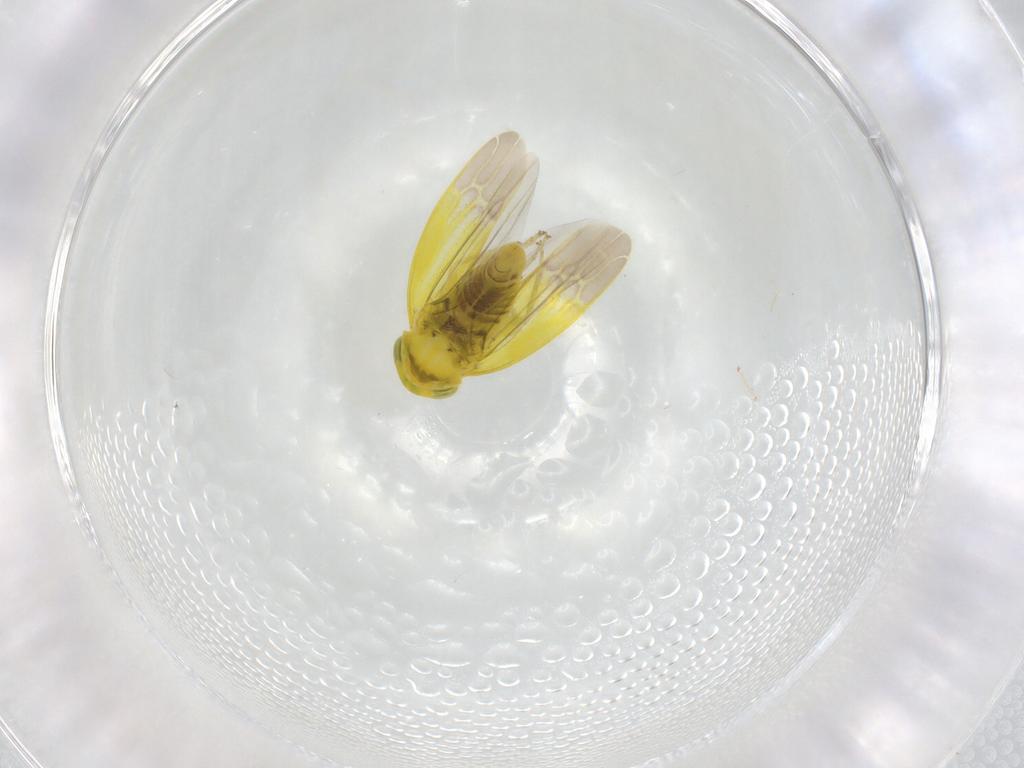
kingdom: Animalia
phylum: Arthropoda
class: Insecta
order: Hemiptera
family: Cicadellidae
